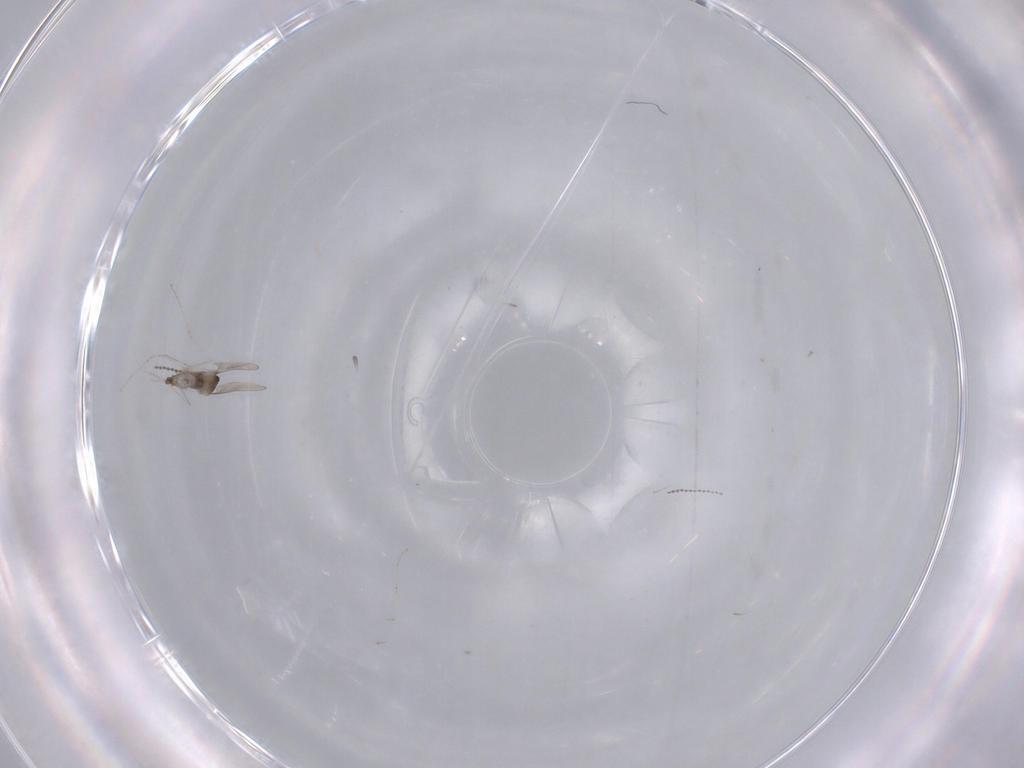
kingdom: Animalia
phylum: Arthropoda
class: Insecta
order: Diptera
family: Cecidomyiidae
